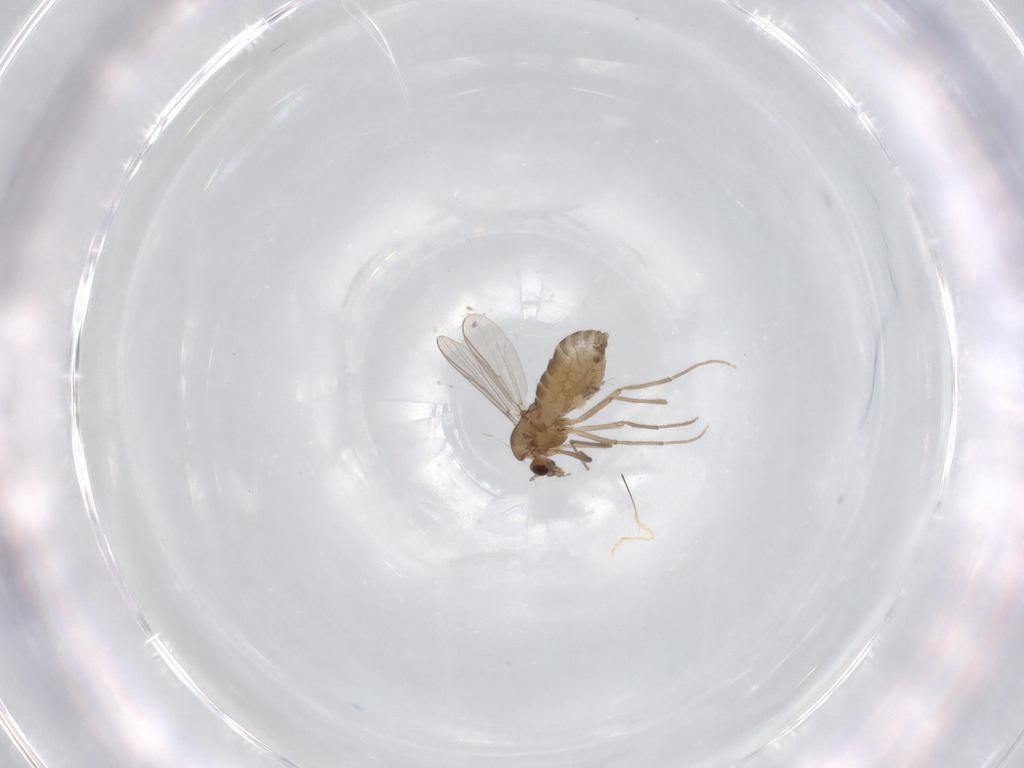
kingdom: Animalia
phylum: Arthropoda
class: Insecta
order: Diptera
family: Chironomidae
